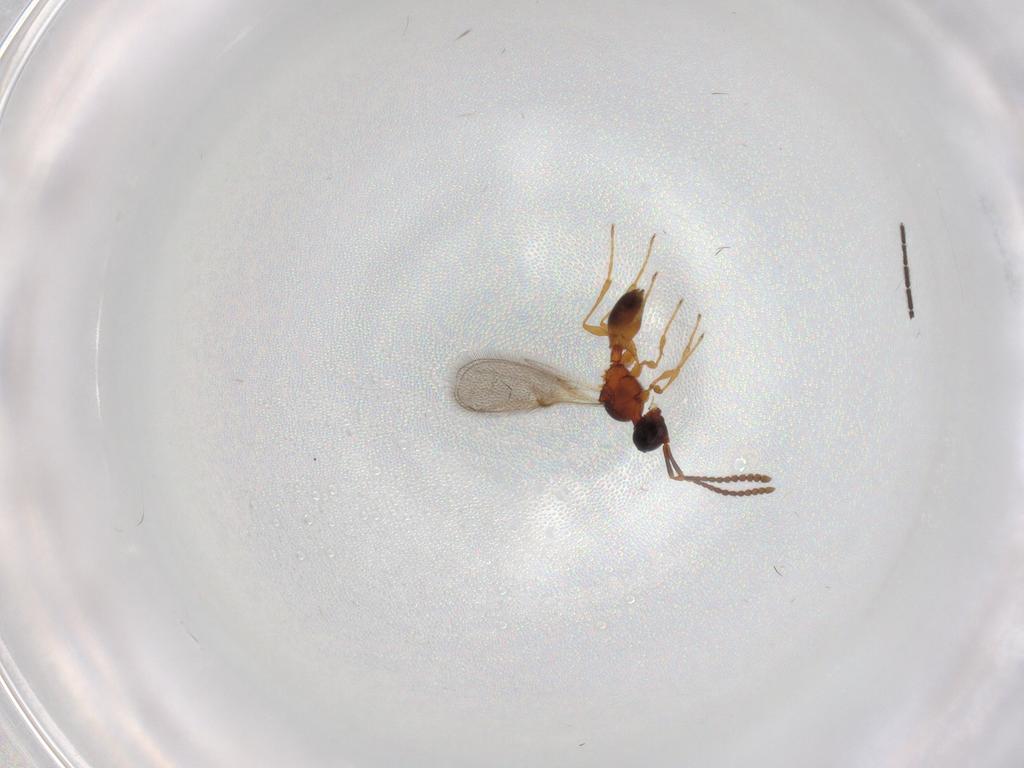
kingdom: Animalia
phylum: Arthropoda
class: Insecta
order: Hymenoptera
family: Diapriidae
